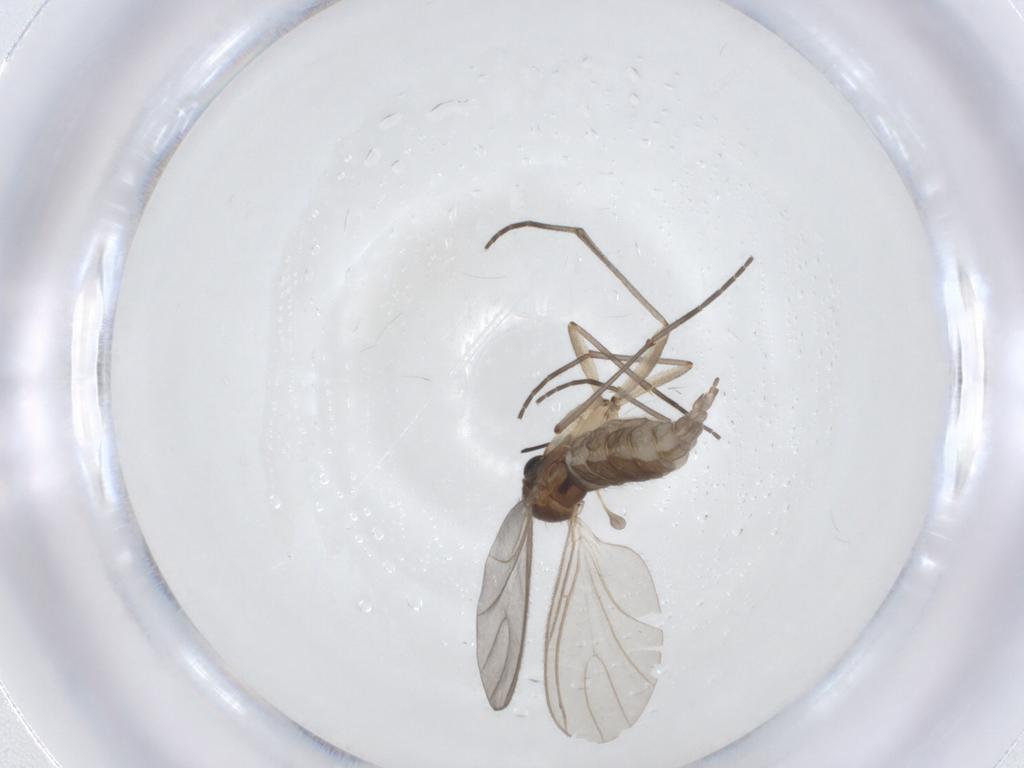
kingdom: Animalia
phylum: Arthropoda
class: Insecta
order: Diptera
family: Sciaridae
